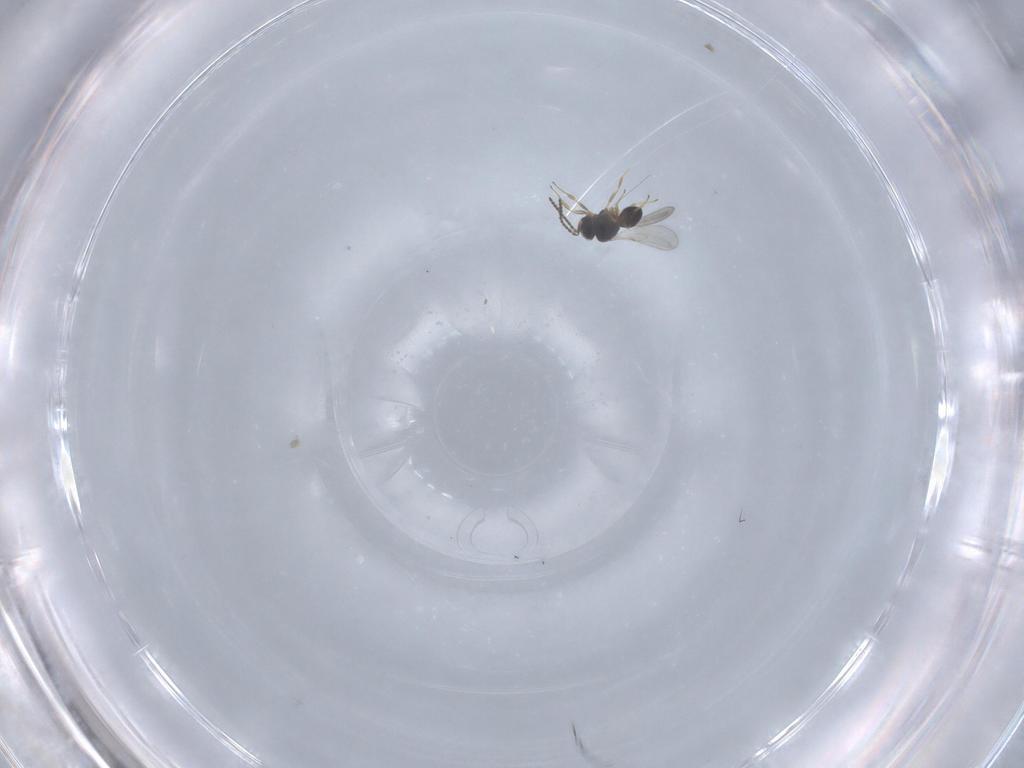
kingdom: Animalia
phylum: Arthropoda
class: Insecta
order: Hymenoptera
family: Scelionidae
